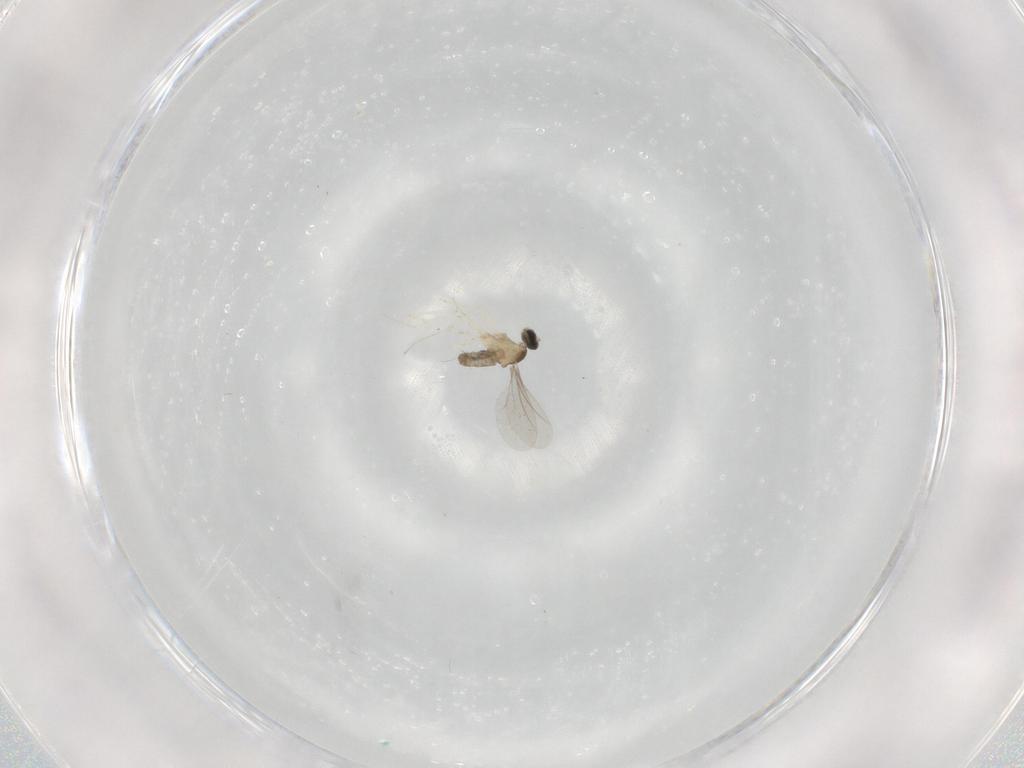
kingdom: Animalia
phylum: Arthropoda
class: Insecta
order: Diptera
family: Cecidomyiidae
